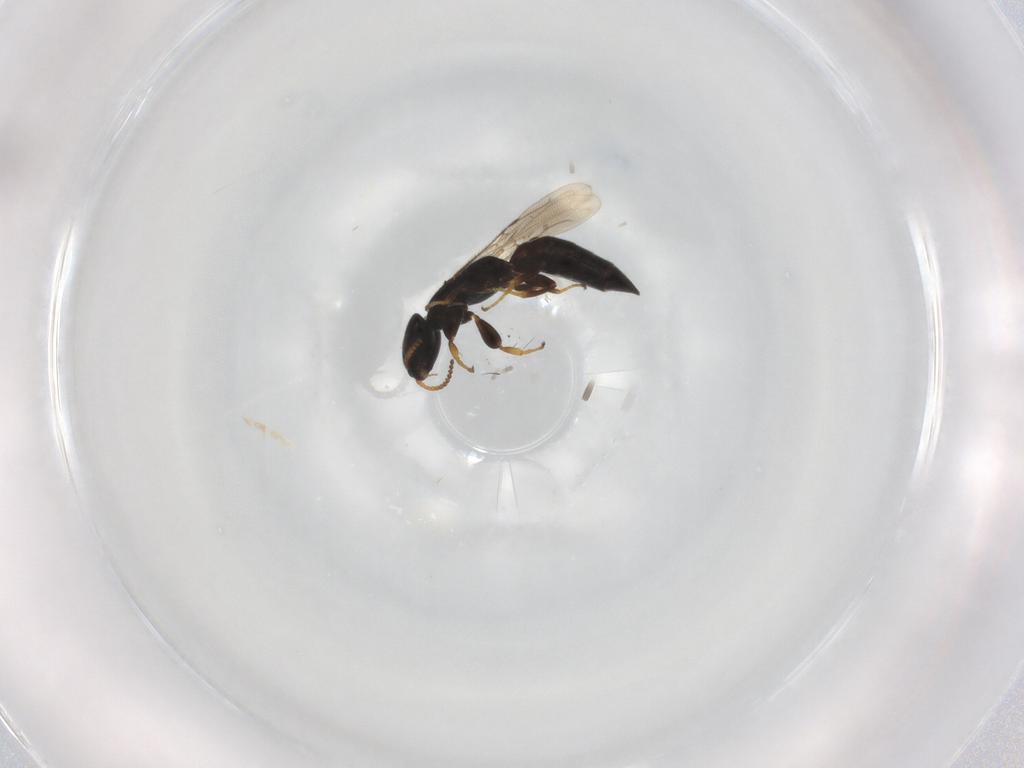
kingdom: Animalia
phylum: Arthropoda
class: Insecta
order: Hymenoptera
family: Bethylidae
